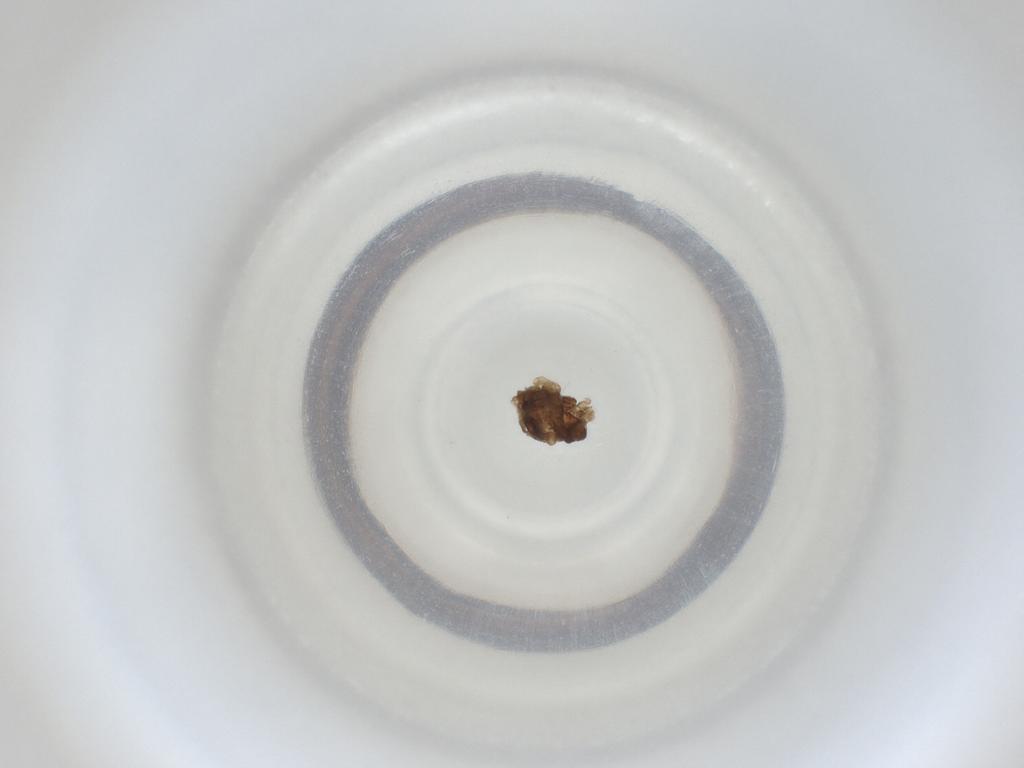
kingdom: Animalia
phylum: Arthropoda
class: Insecta
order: Diptera
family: Cecidomyiidae
